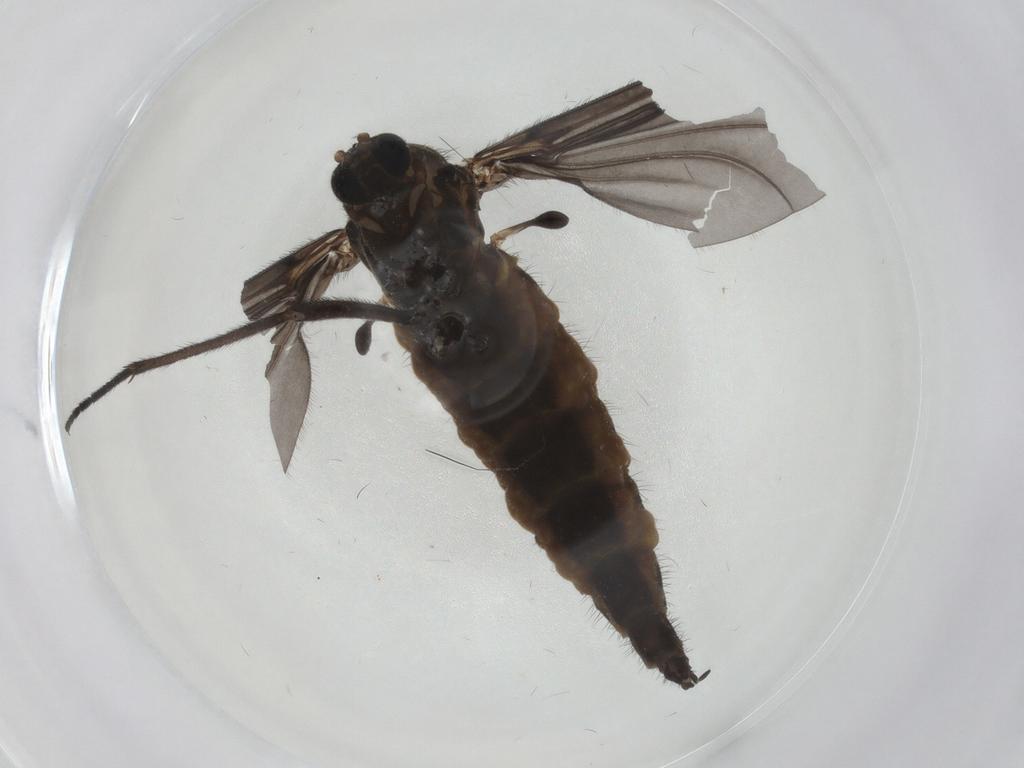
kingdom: Animalia
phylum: Arthropoda
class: Insecta
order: Diptera
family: Sciaridae
